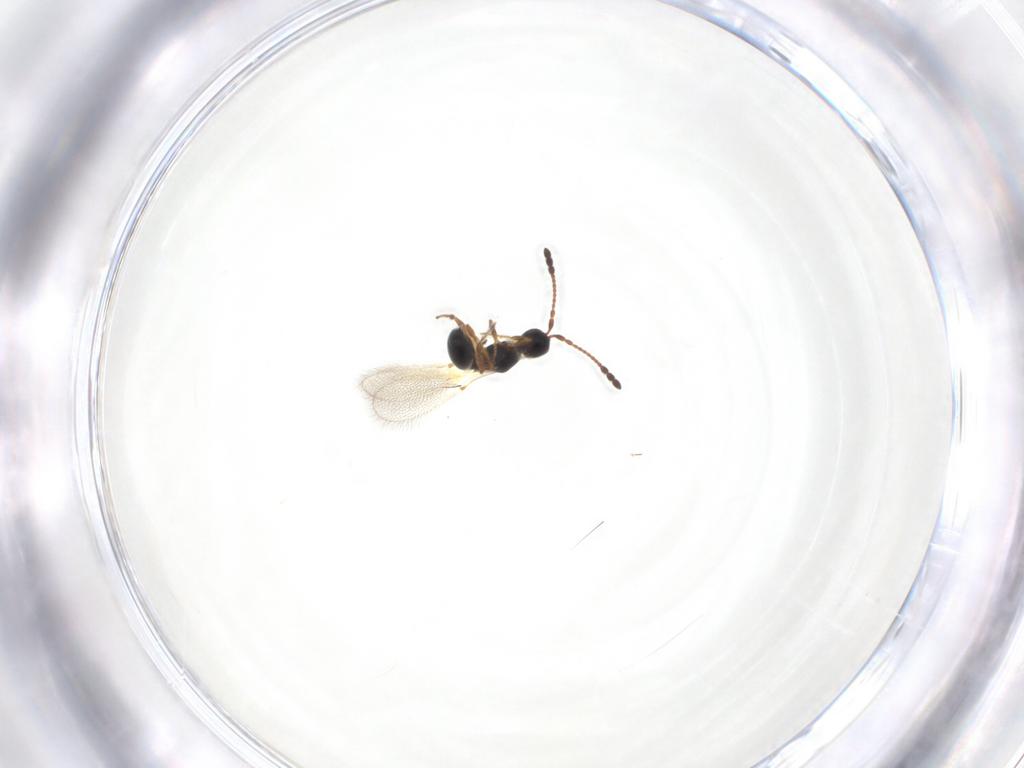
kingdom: Animalia
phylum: Arthropoda
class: Insecta
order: Hymenoptera
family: Diapriidae
